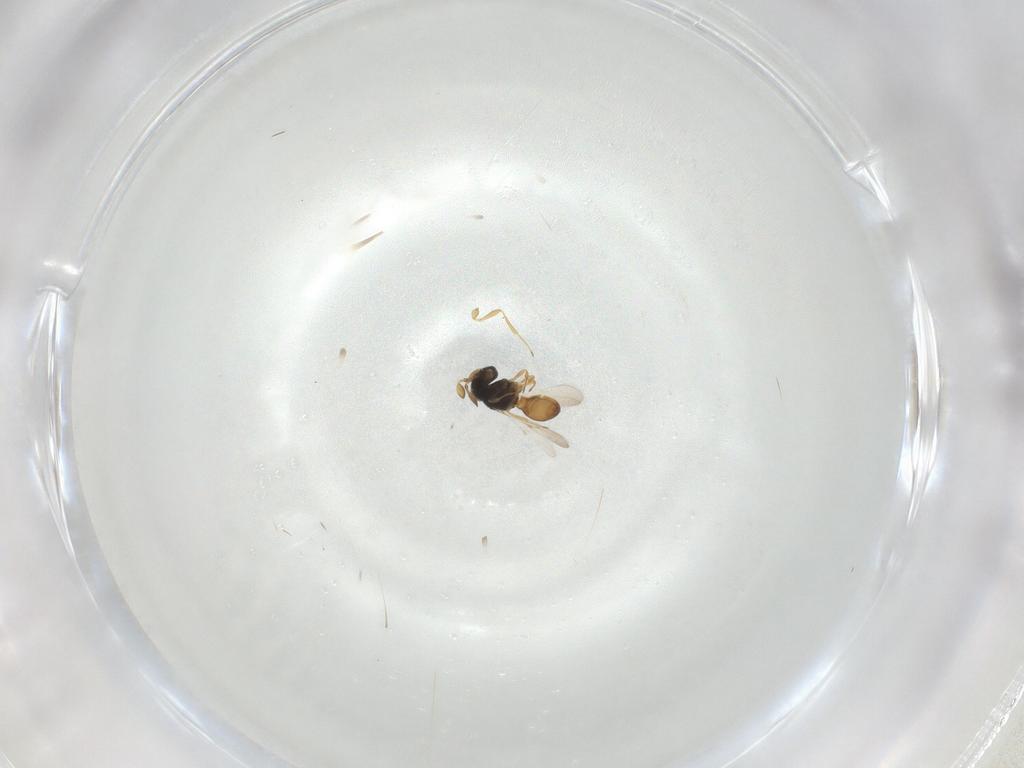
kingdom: Animalia
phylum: Arthropoda
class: Insecta
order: Hymenoptera
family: Scelionidae
